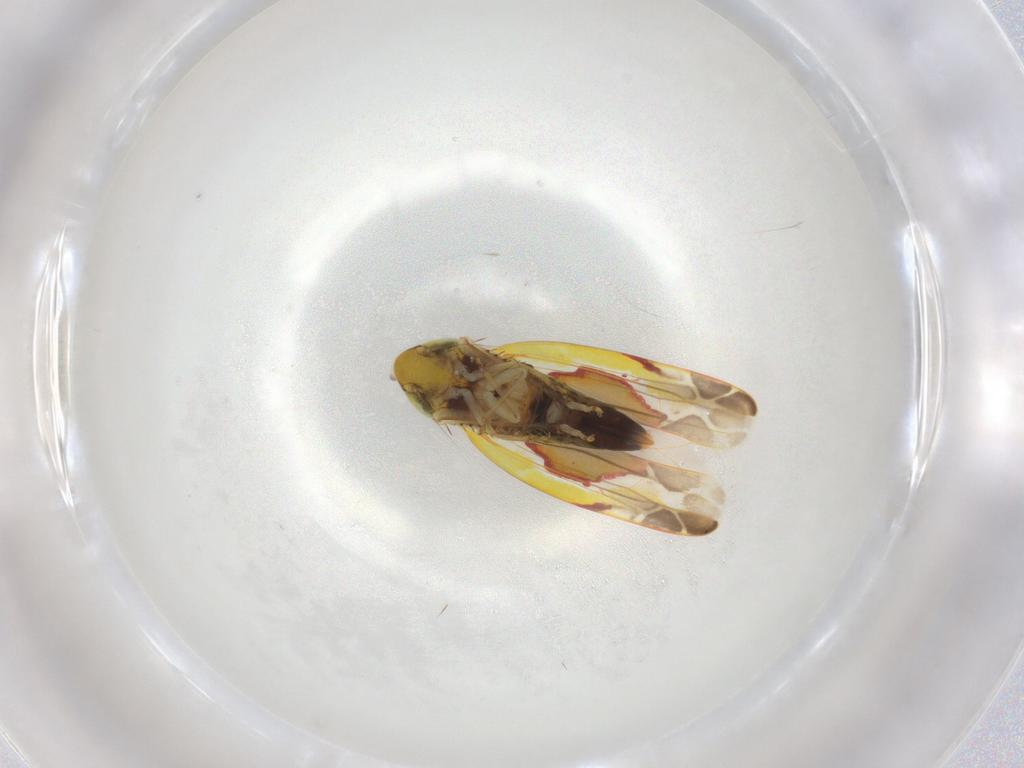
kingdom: Animalia
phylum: Arthropoda
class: Insecta
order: Hemiptera
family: Cicadellidae
